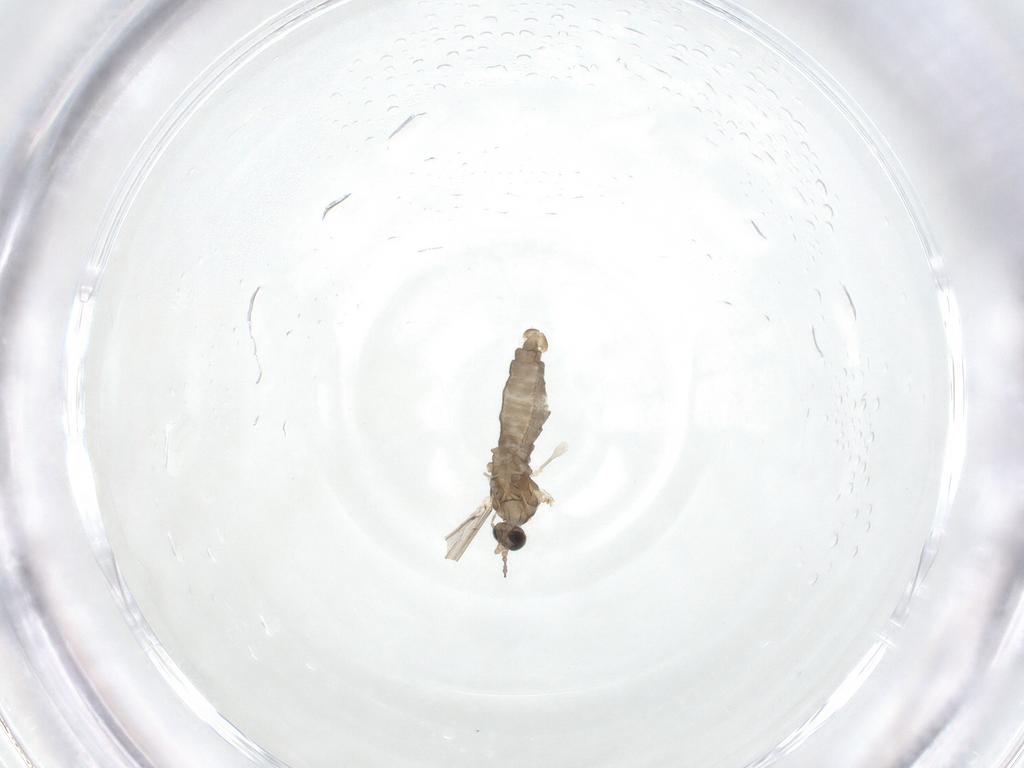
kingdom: Animalia
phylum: Arthropoda
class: Insecta
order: Diptera
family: Cecidomyiidae
